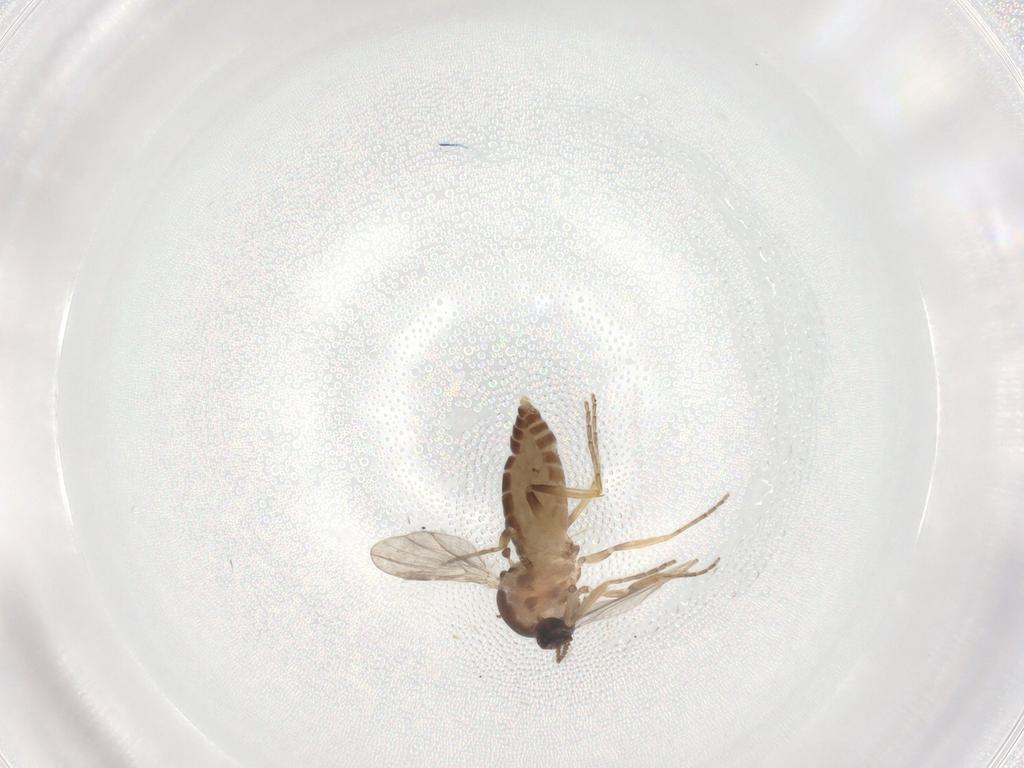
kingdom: Animalia
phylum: Arthropoda
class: Insecta
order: Diptera
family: Ceratopogonidae
